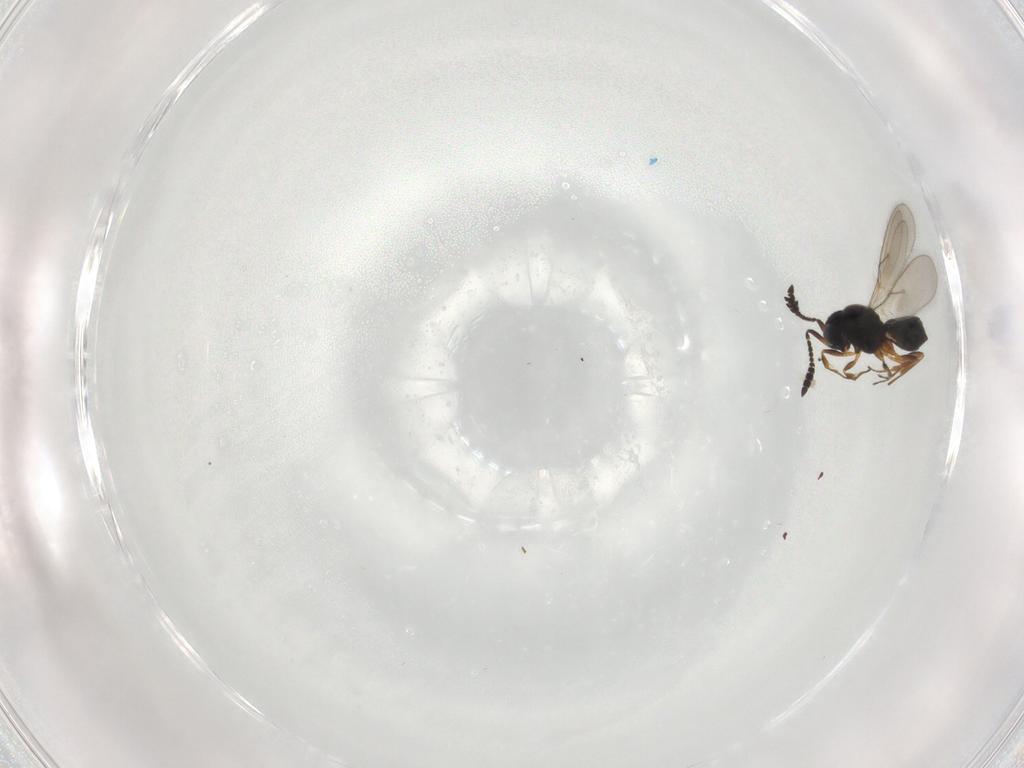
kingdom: Animalia
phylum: Arthropoda
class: Insecta
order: Hymenoptera
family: Scelionidae
